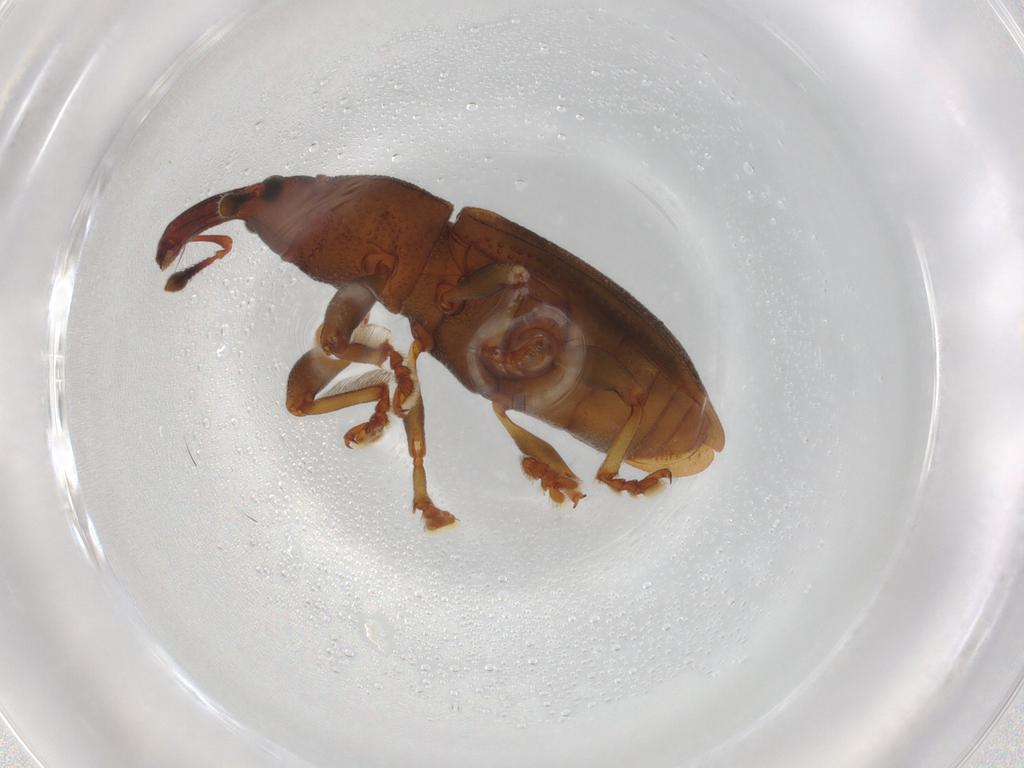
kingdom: Animalia
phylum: Arthropoda
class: Insecta
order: Coleoptera
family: Curculionidae
